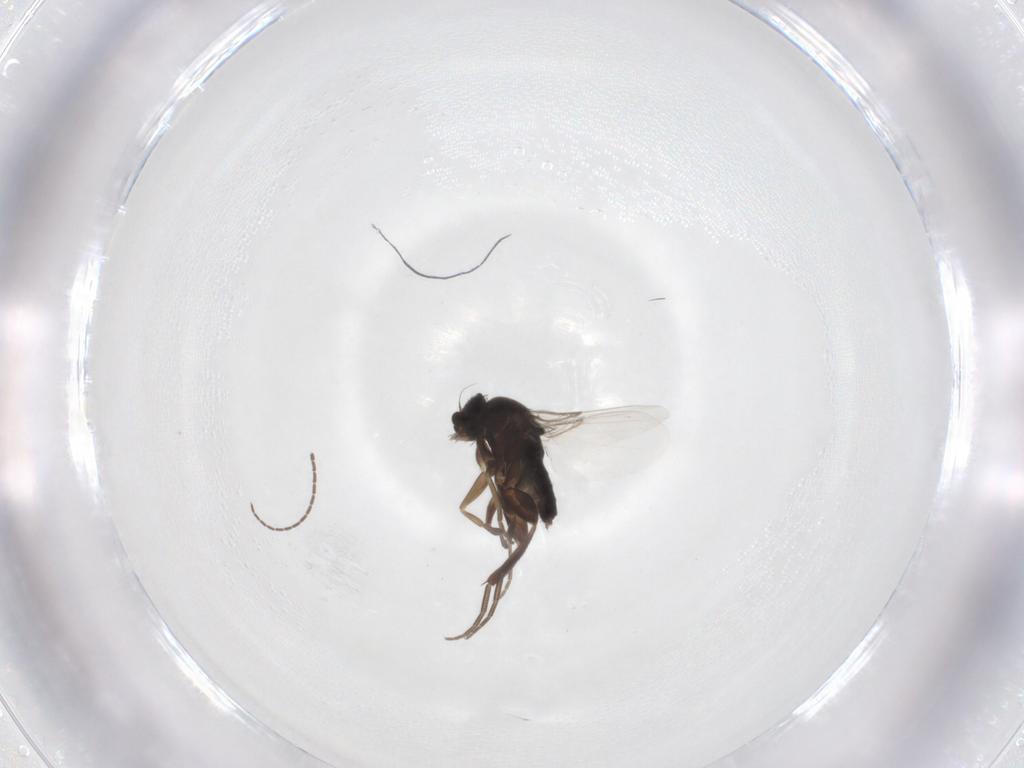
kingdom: Animalia
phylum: Arthropoda
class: Insecta
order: Diptera
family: Phoridae
